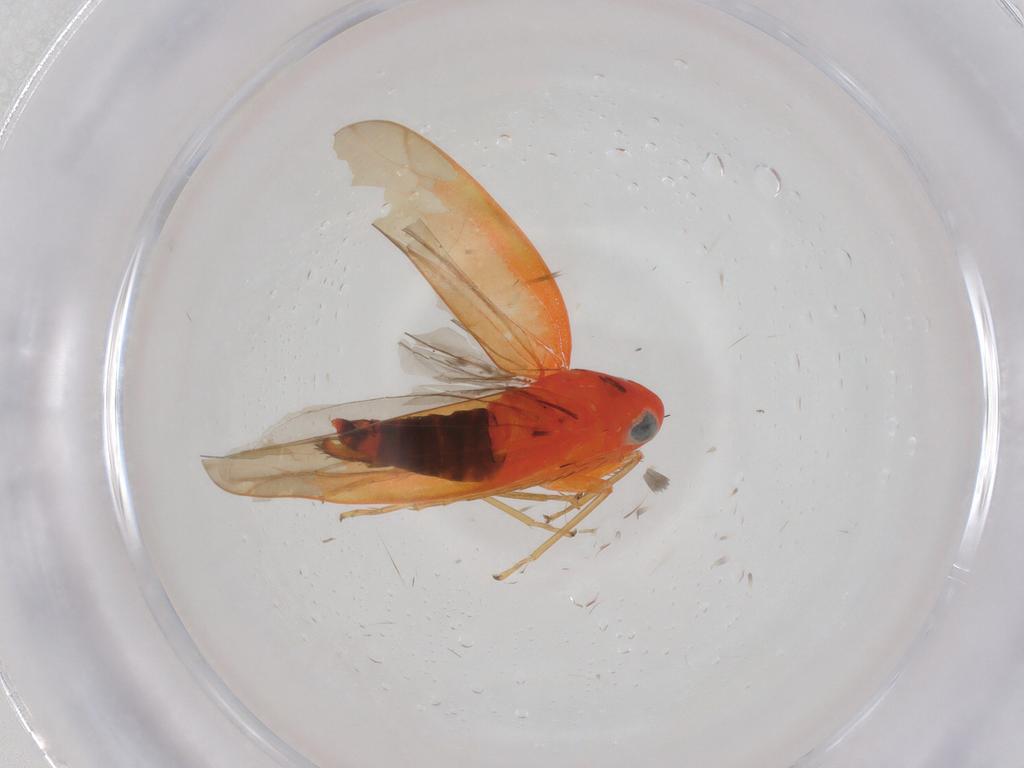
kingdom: Animalia
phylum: Arthropoda
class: Insecta
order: Hemiptera
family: Cicadellidae
